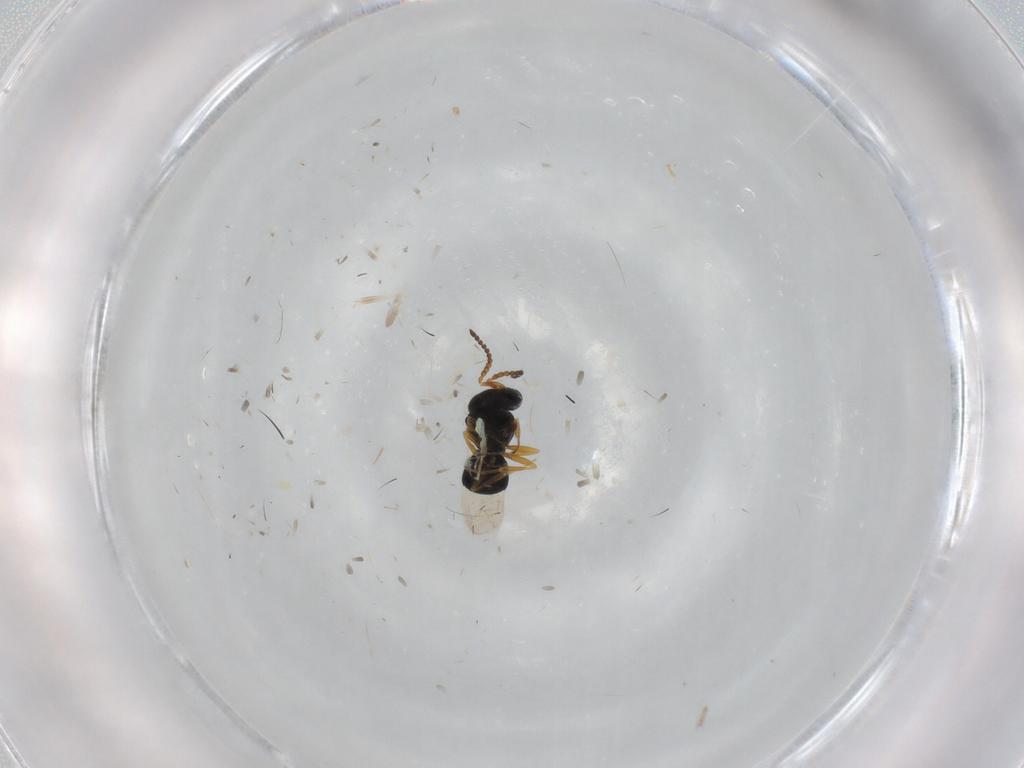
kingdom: Animalia
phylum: Arthropoda
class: Insecta
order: Hymenoptera
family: Scelionidae
